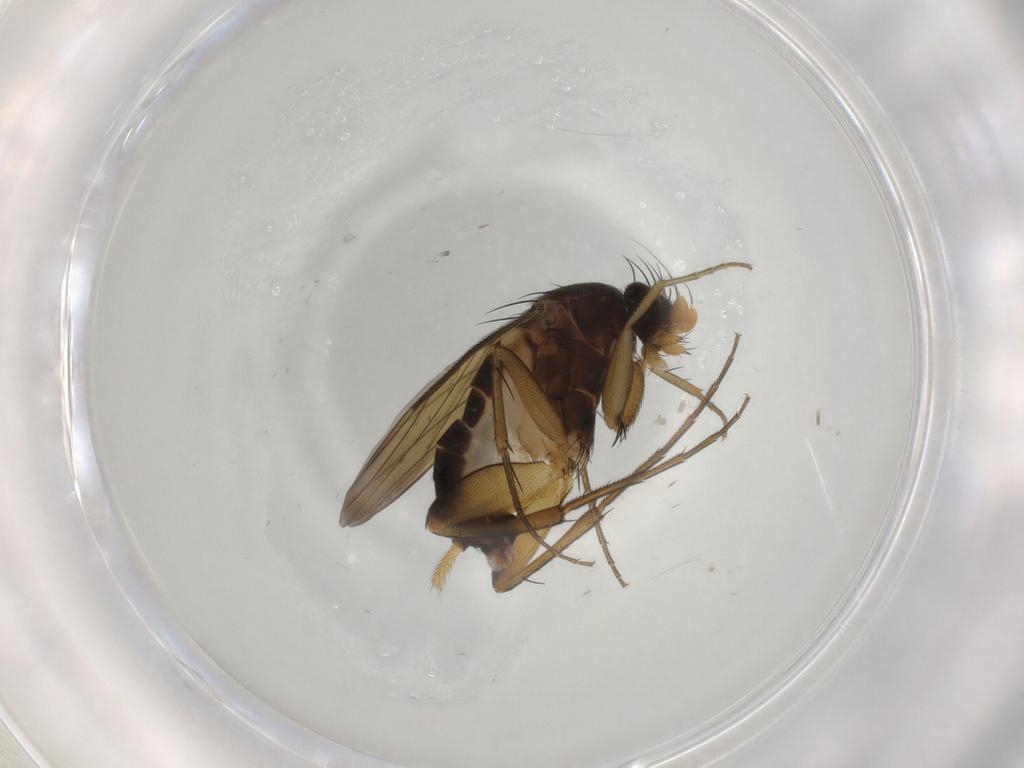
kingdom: Animalia
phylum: Arthropoda
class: Insecta
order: Diptera
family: Phoridae
